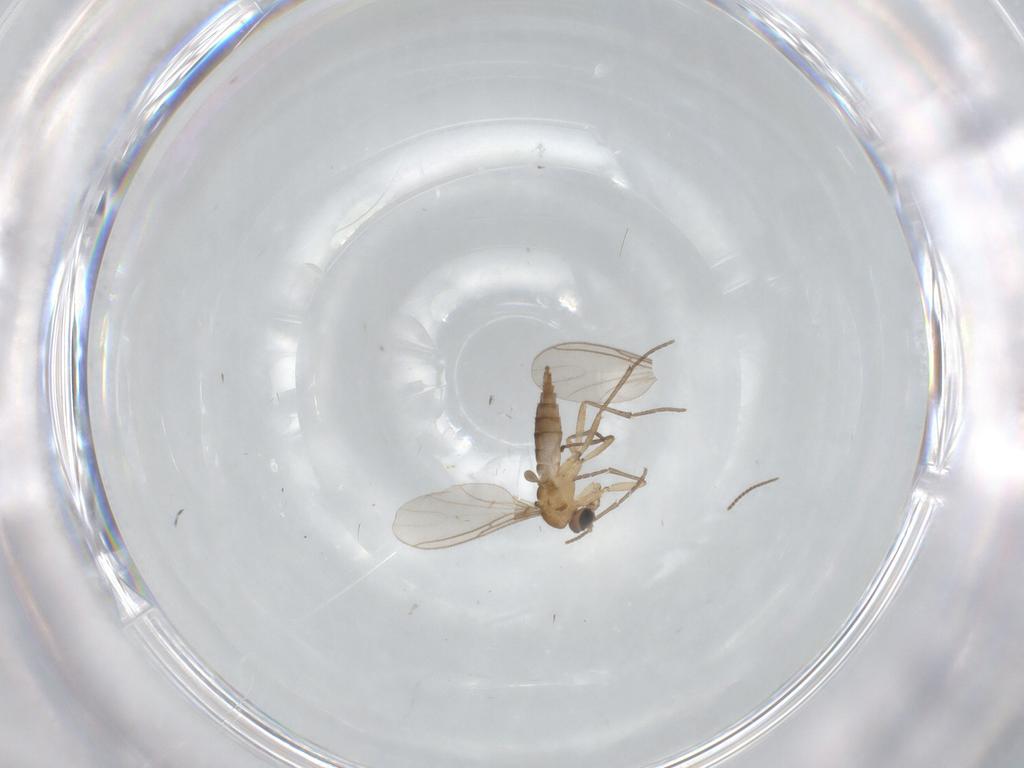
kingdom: Animalia
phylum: Arthropoda
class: Insecta
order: Diptera
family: Sciaridae
